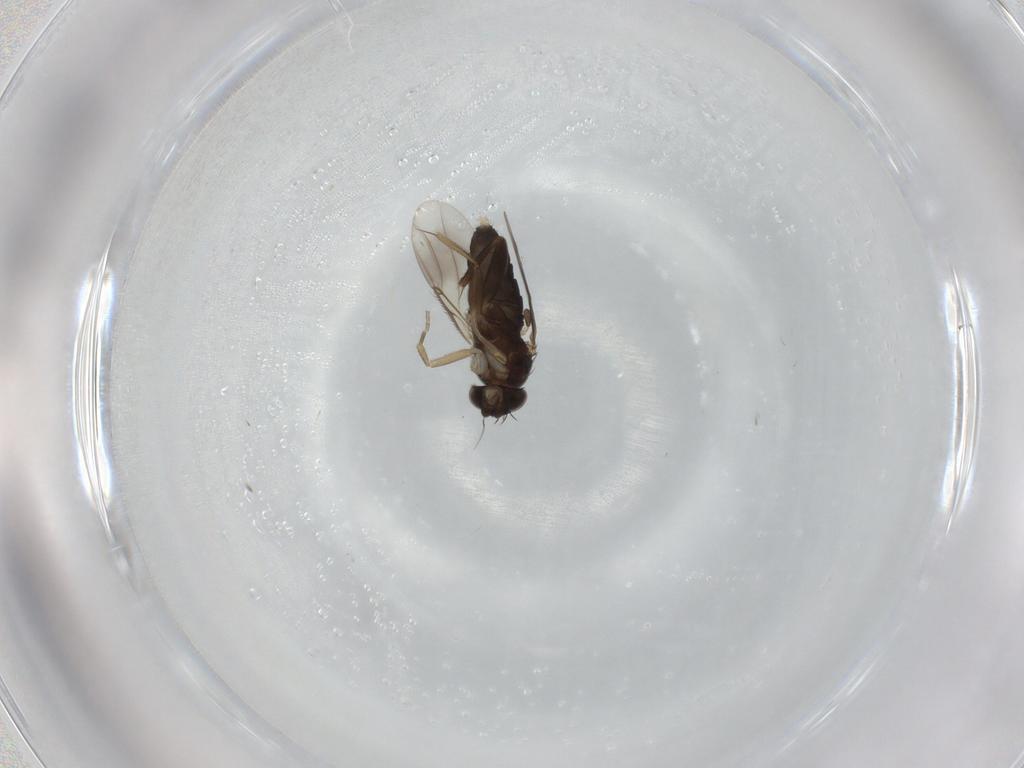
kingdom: Animalia
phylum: Arthropoda
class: Insecta
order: Diptera
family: Phoridae
